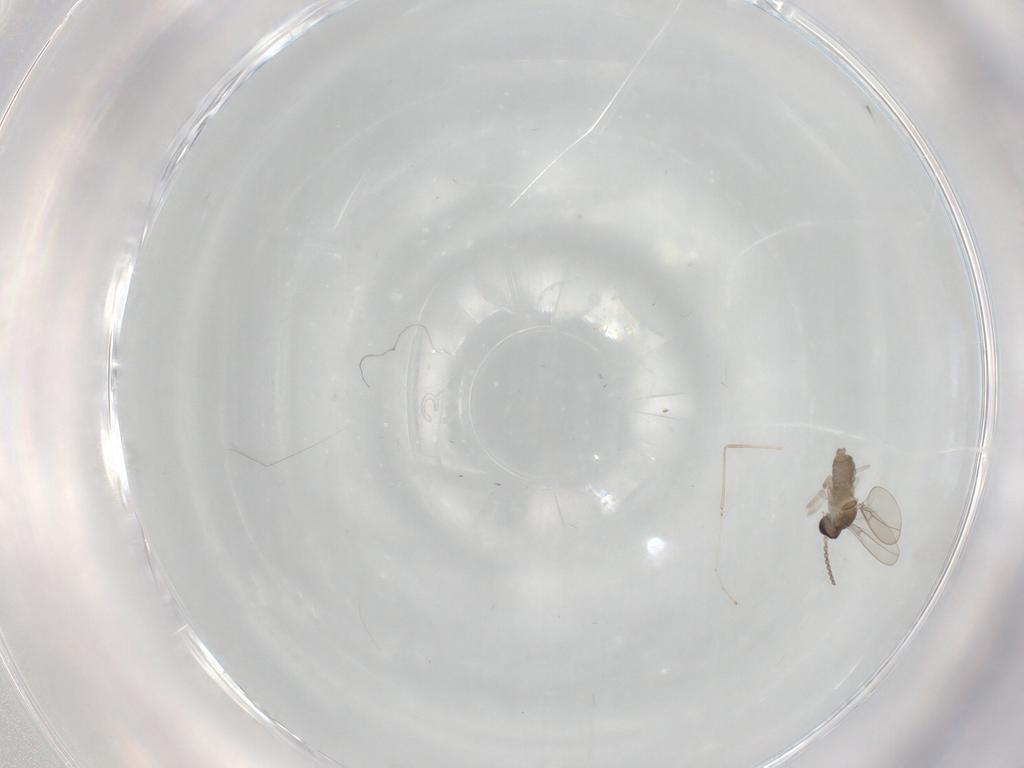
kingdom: Animalia
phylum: Arthropoda
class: Insecta
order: Diptera
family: Cecidomyiidae
